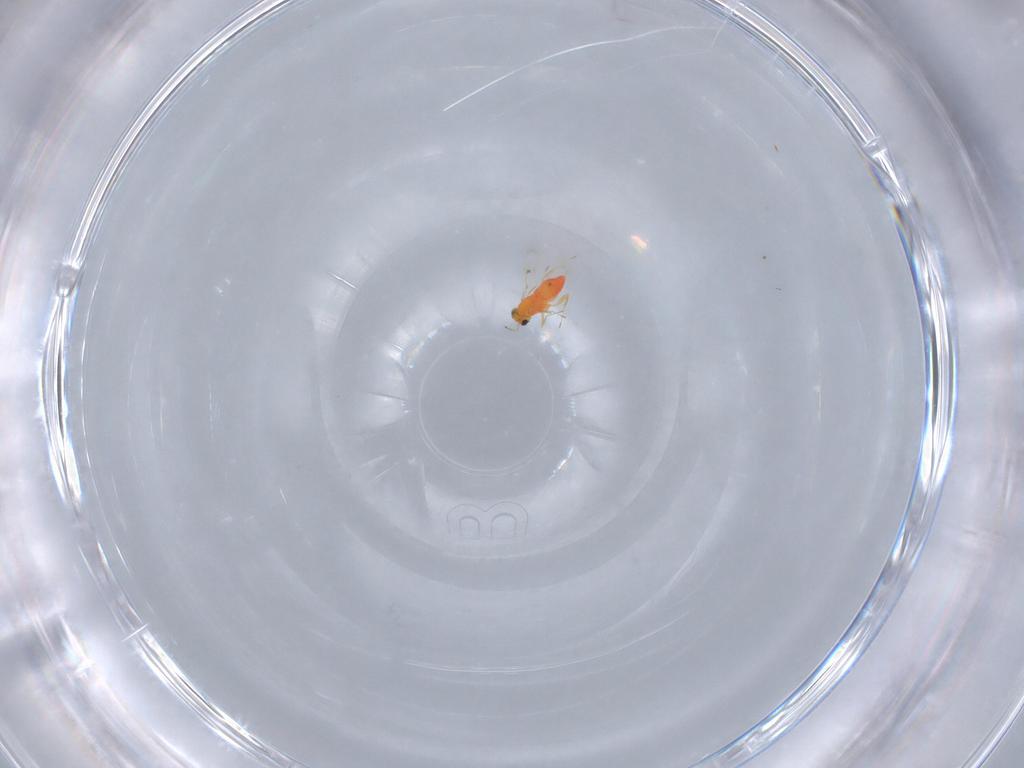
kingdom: Animalia
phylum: Arthropoda
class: Insecta
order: Hymenoptera
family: Trichogrammatidae
